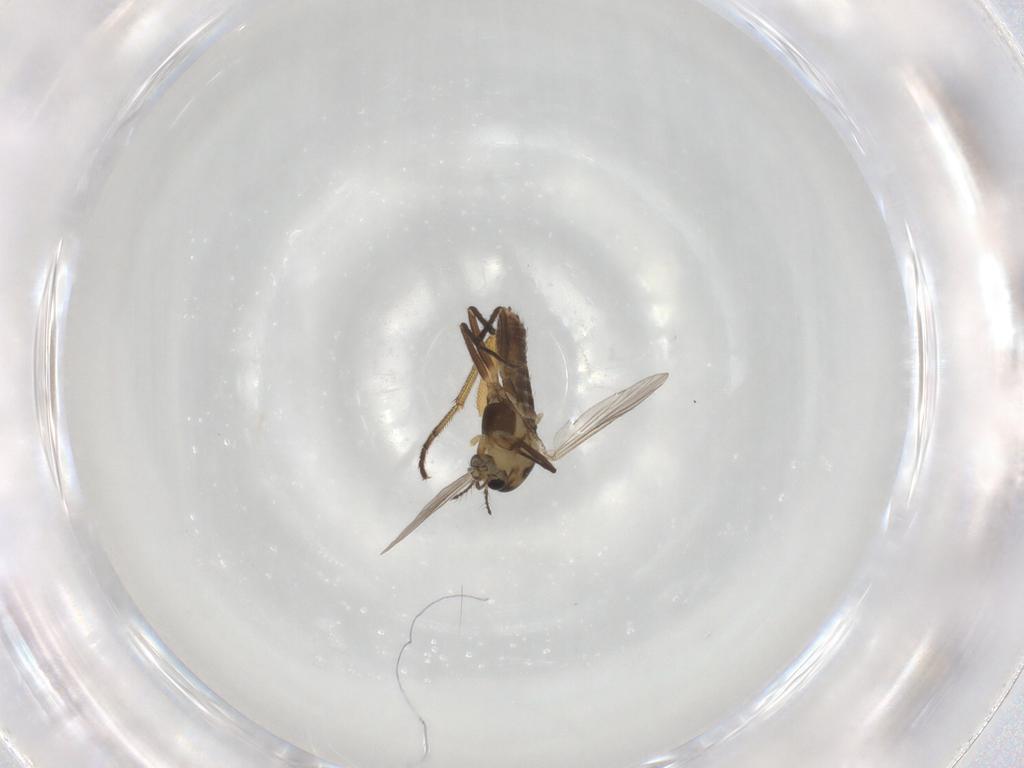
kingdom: Animalia
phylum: Arthropoda
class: Insecta
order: Diptera
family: Chironomidae
